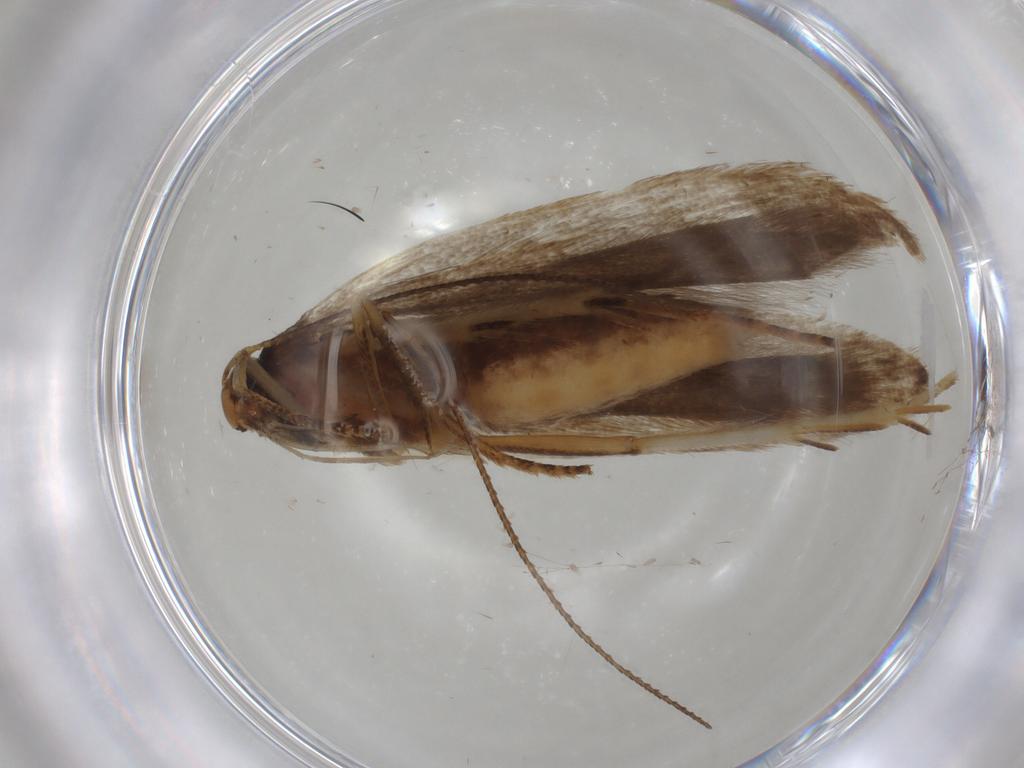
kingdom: Animalia
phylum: Arthropoda
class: Insecta
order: Lepidoptera
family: Gelechiidae
